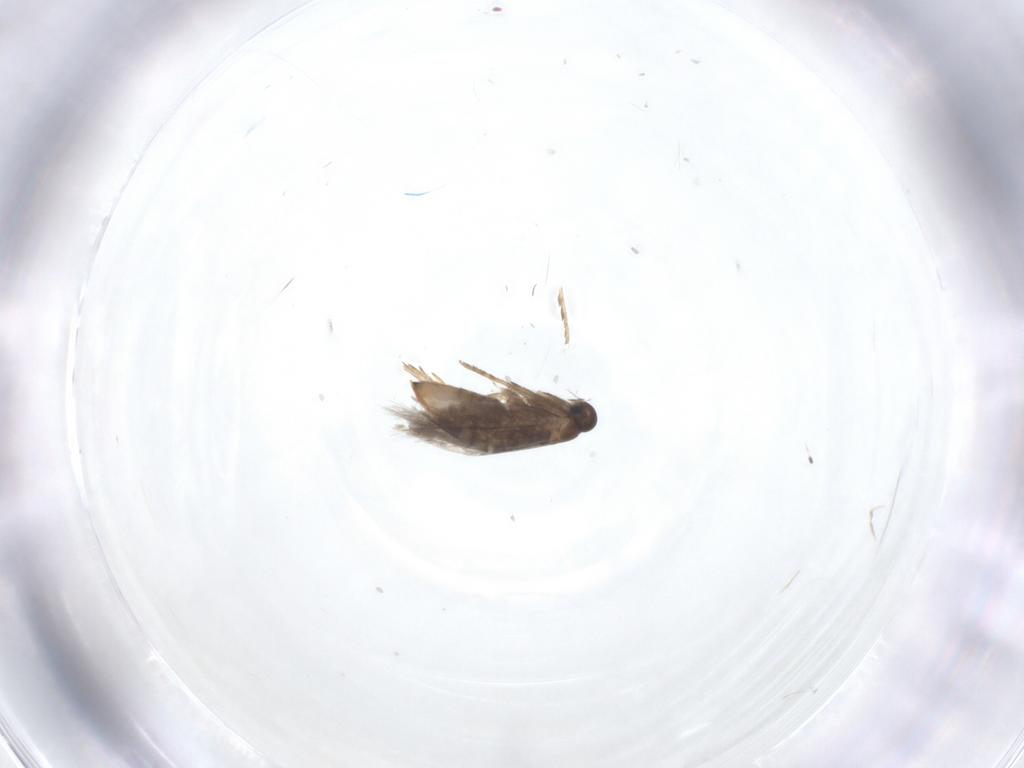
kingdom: Animalia
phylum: Arthropoda
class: Insecta
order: Lepidoptera
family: Heliozelidae
